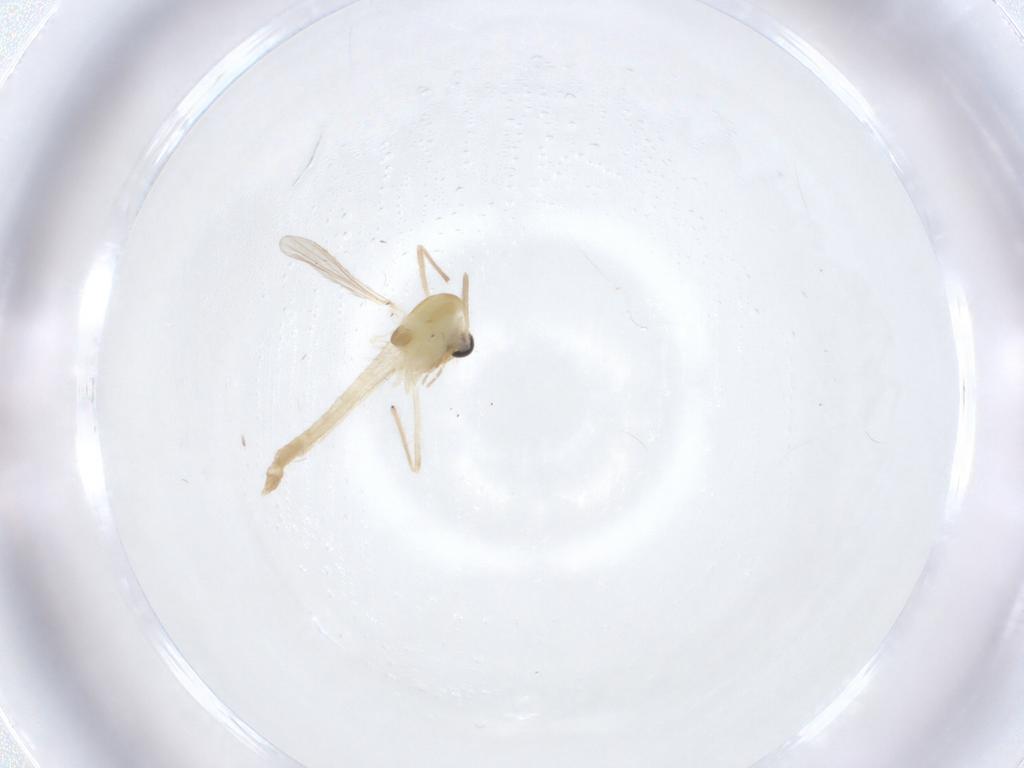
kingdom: Animalia
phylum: Arthropoda
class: Insecta
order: Diptera
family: Chironomidae
